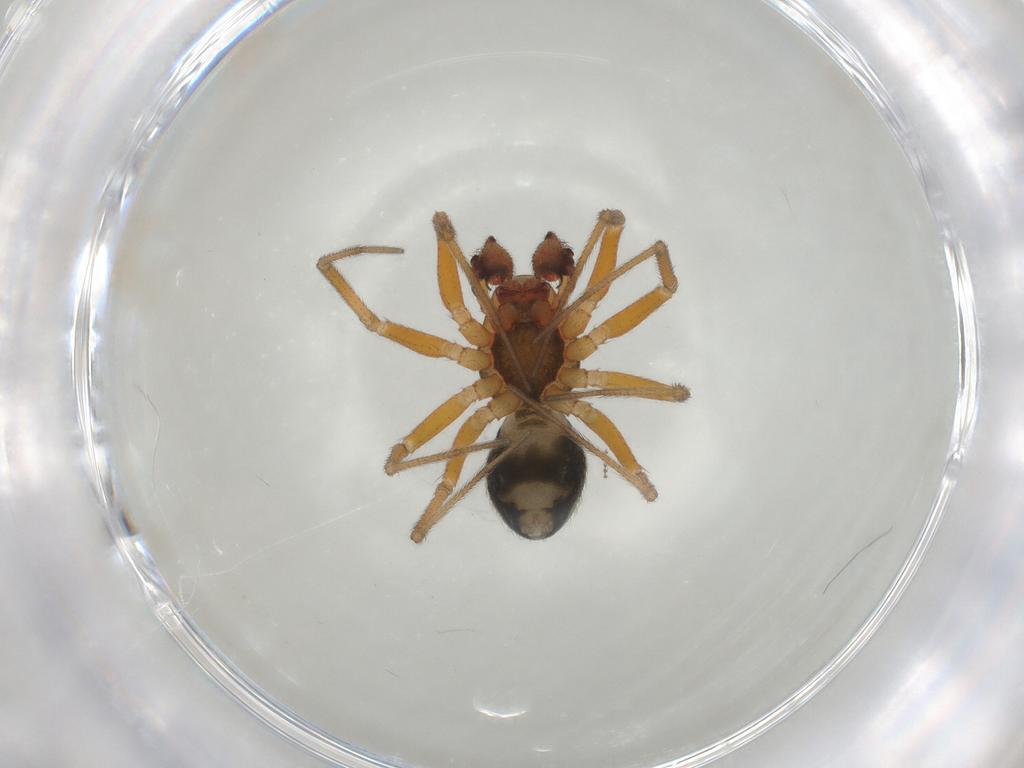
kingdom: Animalia
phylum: Arthropoda
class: Arachnida
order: Araneae
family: Linyphiidae
